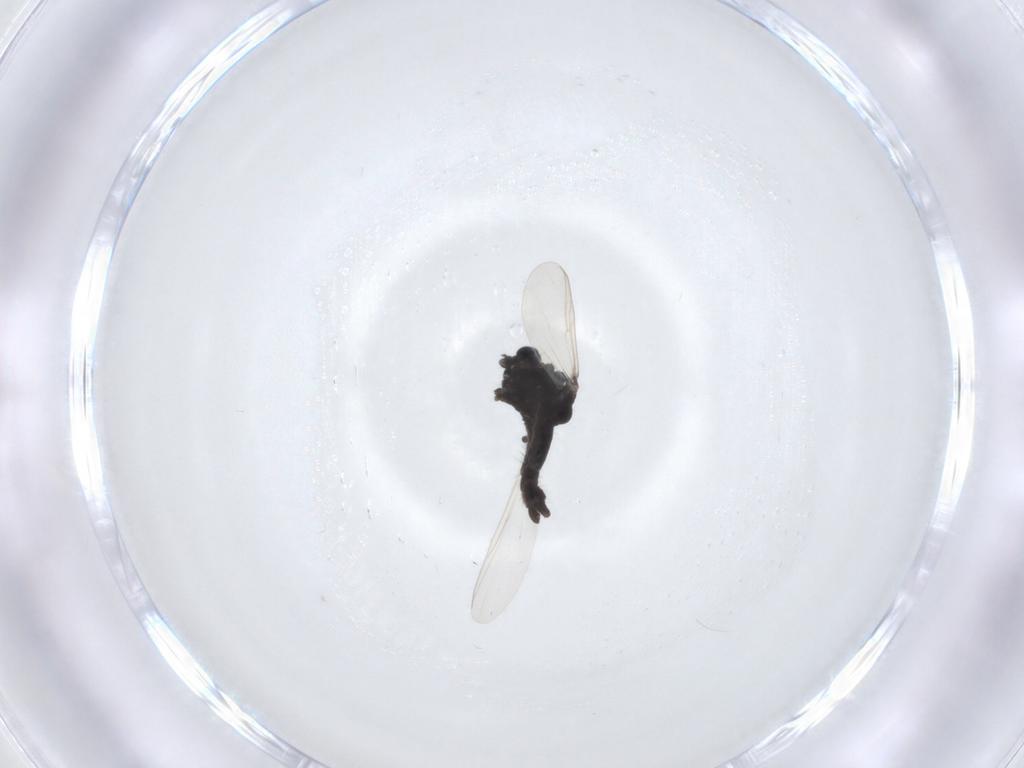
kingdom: Animalia
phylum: Arthropoda
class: Insecta
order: Diptera
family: Chironomidae
